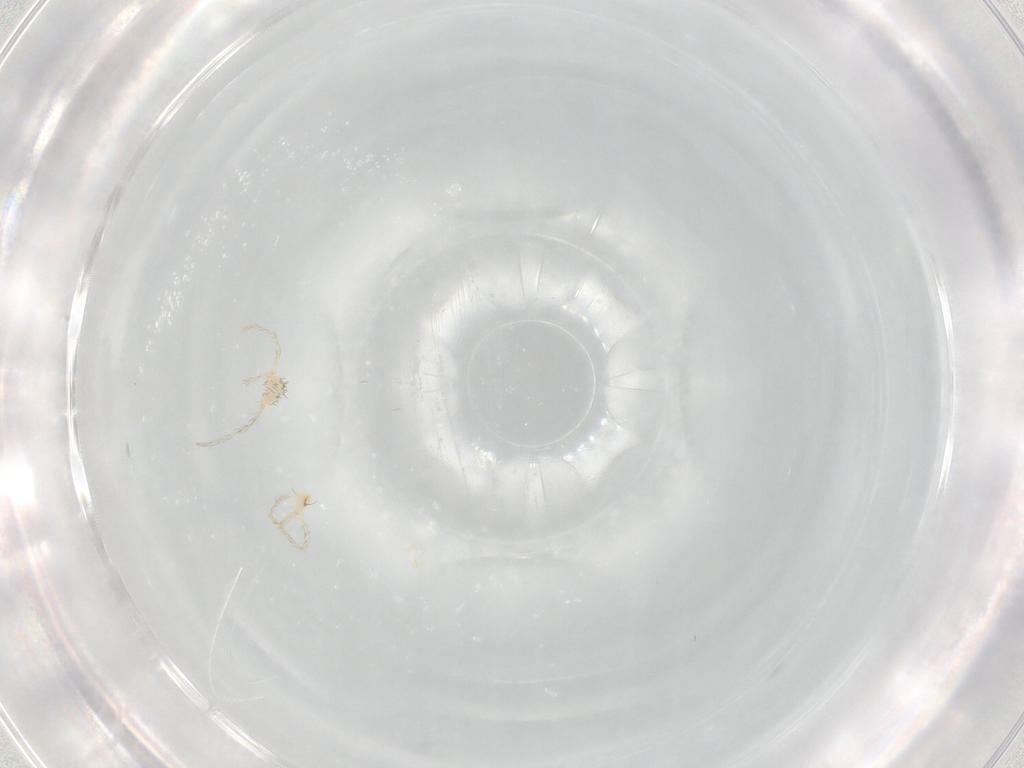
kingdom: Animalia
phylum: Arthropoda
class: Arachnida
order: Trombidiformes
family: Erythraeidae
